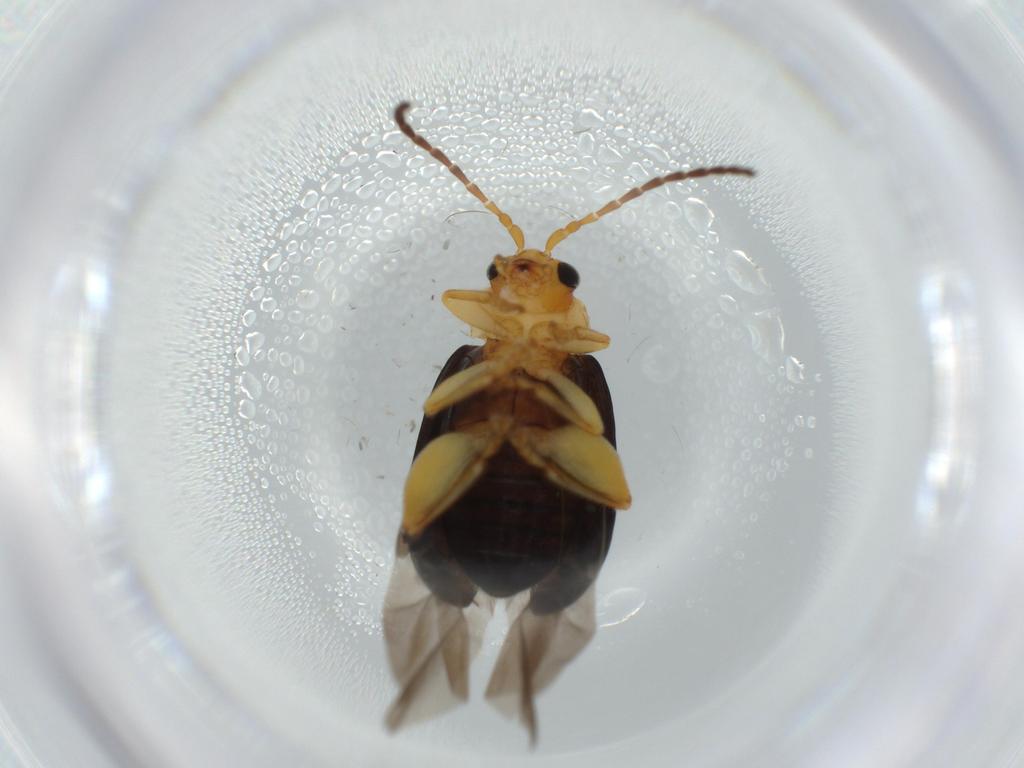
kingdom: Animalia
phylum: Arthropoda
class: Insecta
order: Coleoptera
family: Chrysomelidae
